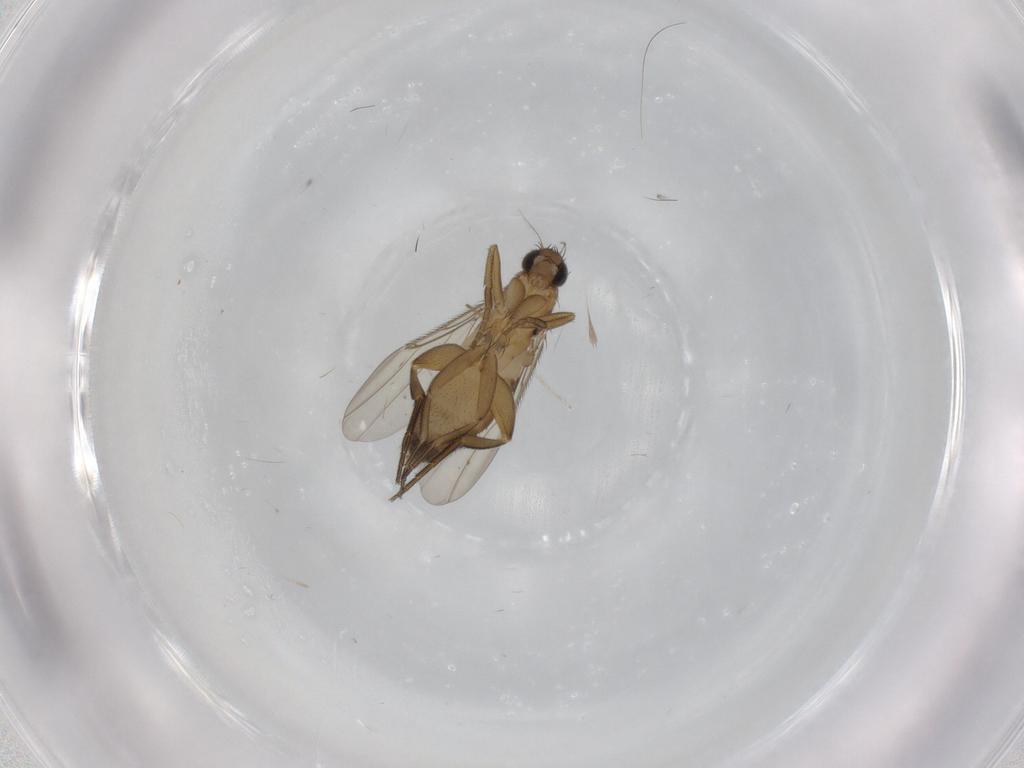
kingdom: Animalia
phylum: Arthropoda
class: Insecta
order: Diptera
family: Phoridae
